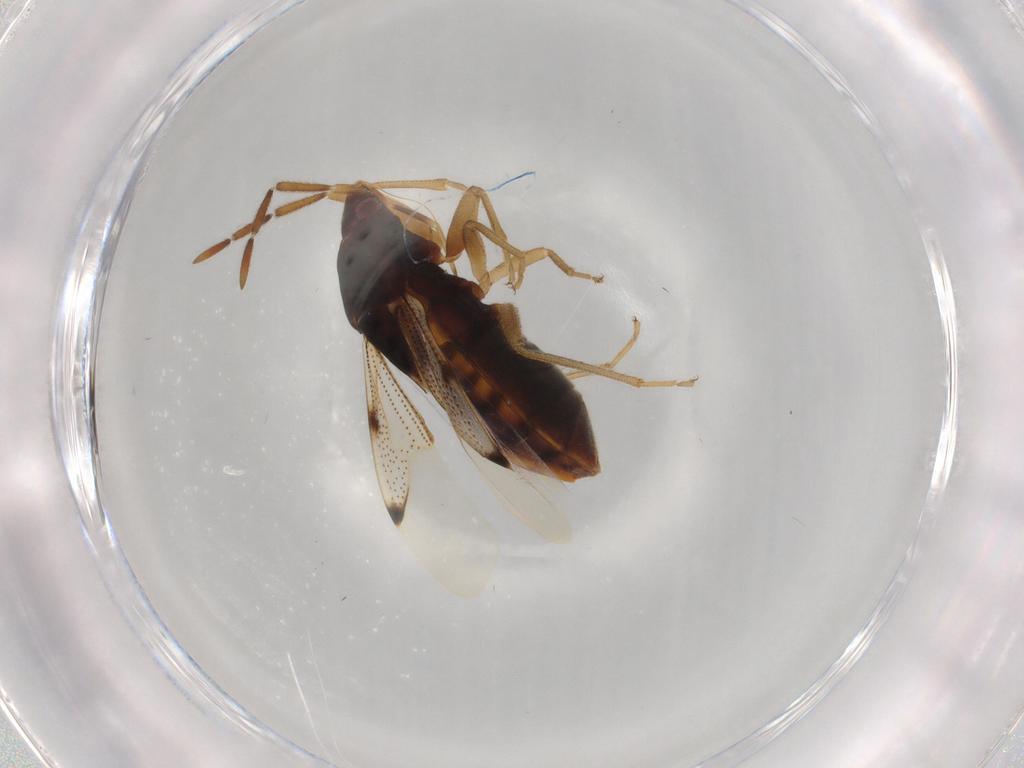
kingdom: Animalia
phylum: Arthropoda
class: Insecta
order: Hemiptera
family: Rhyparochromidae
